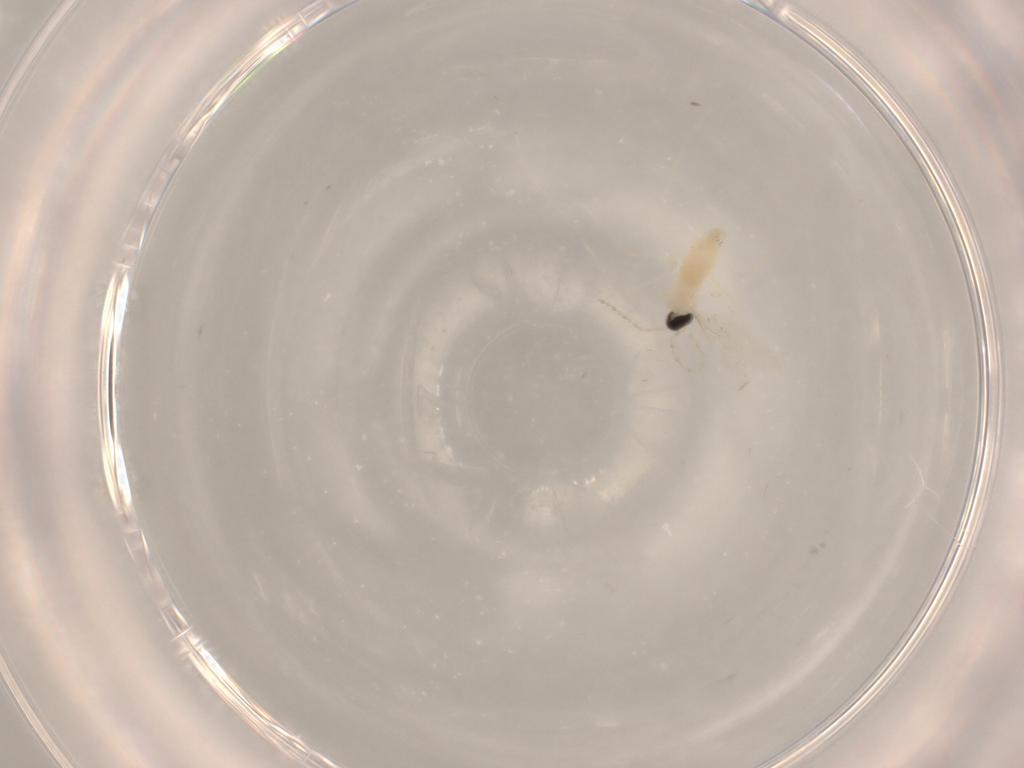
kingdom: Animalia
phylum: Arthropoda
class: Insecta
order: Diptera
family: Cecidomyiidae
